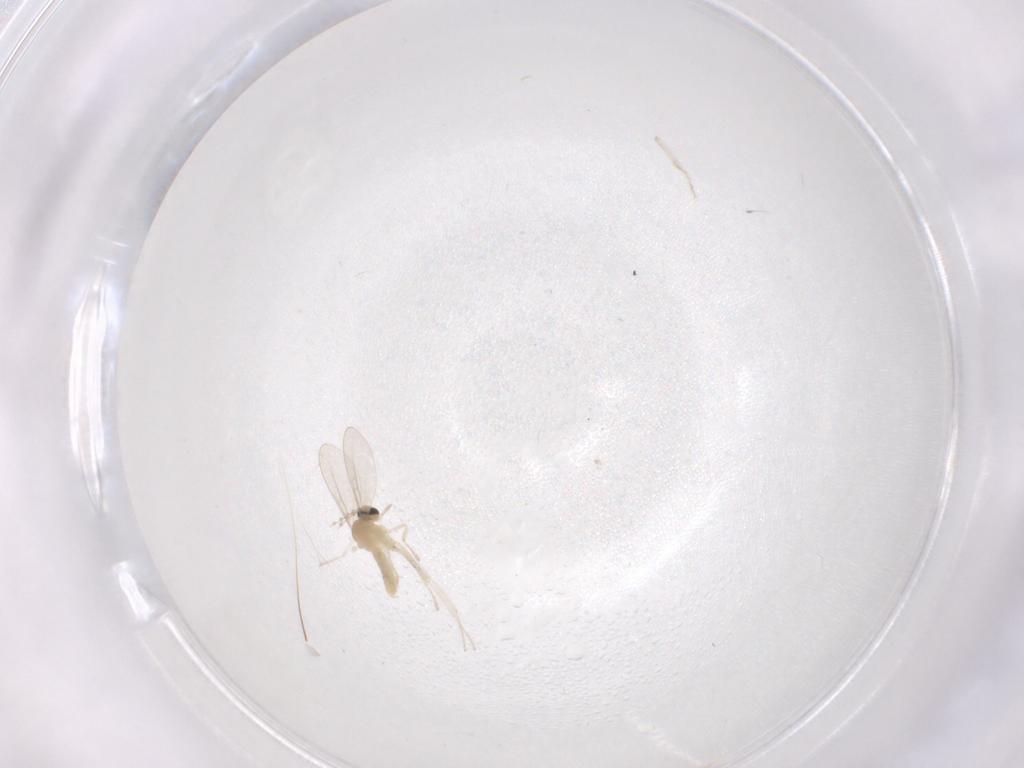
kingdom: Animalia
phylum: Arthropoda
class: Insecta
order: Diptera
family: Cecidomyiidae
